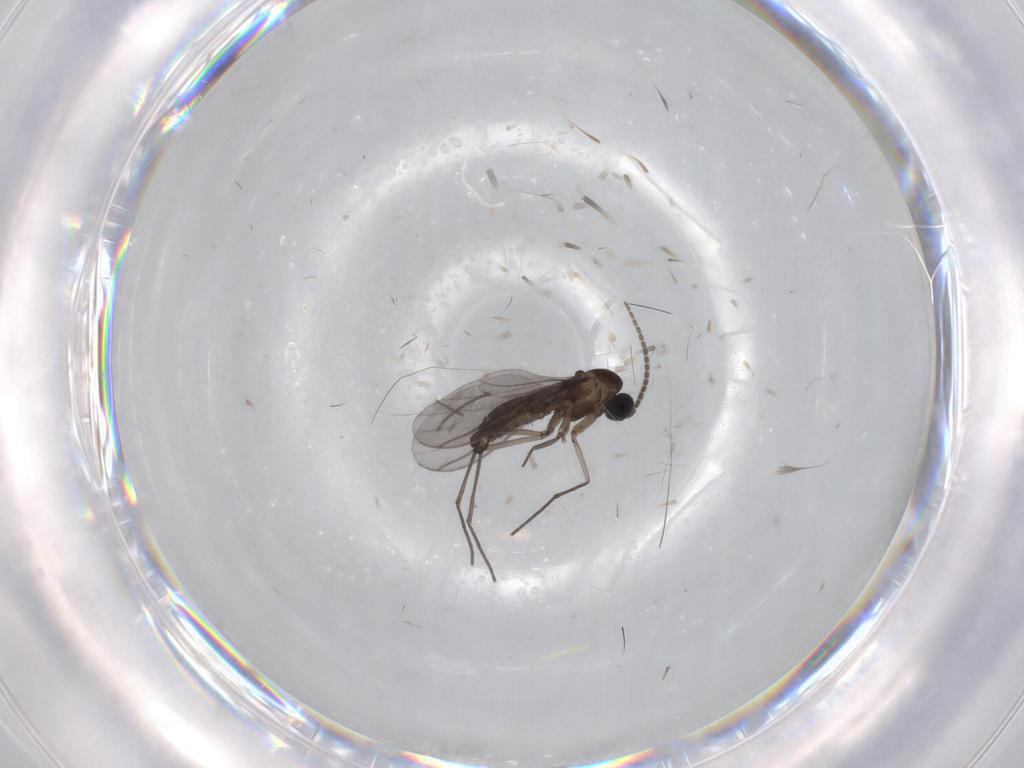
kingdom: Animalia
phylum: Arthropoda
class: Insecta
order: Diptera
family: Sciaridae
